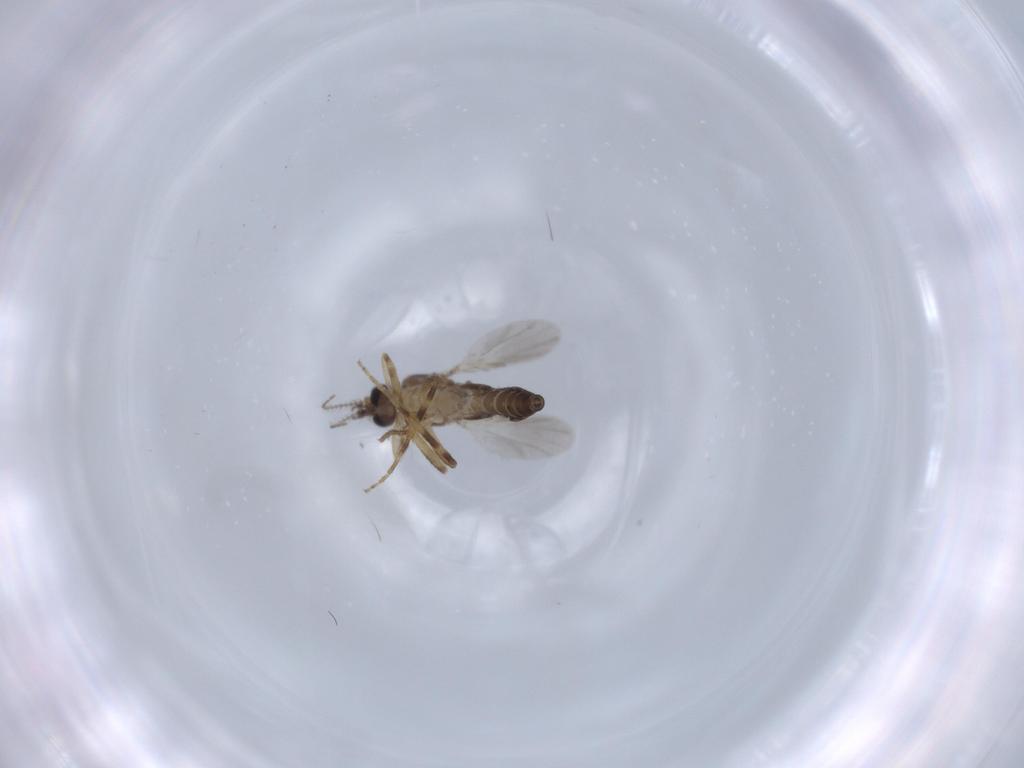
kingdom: Animalia
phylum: Arthropoda
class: Insecta
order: Diptera
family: Ceratopogonidae
